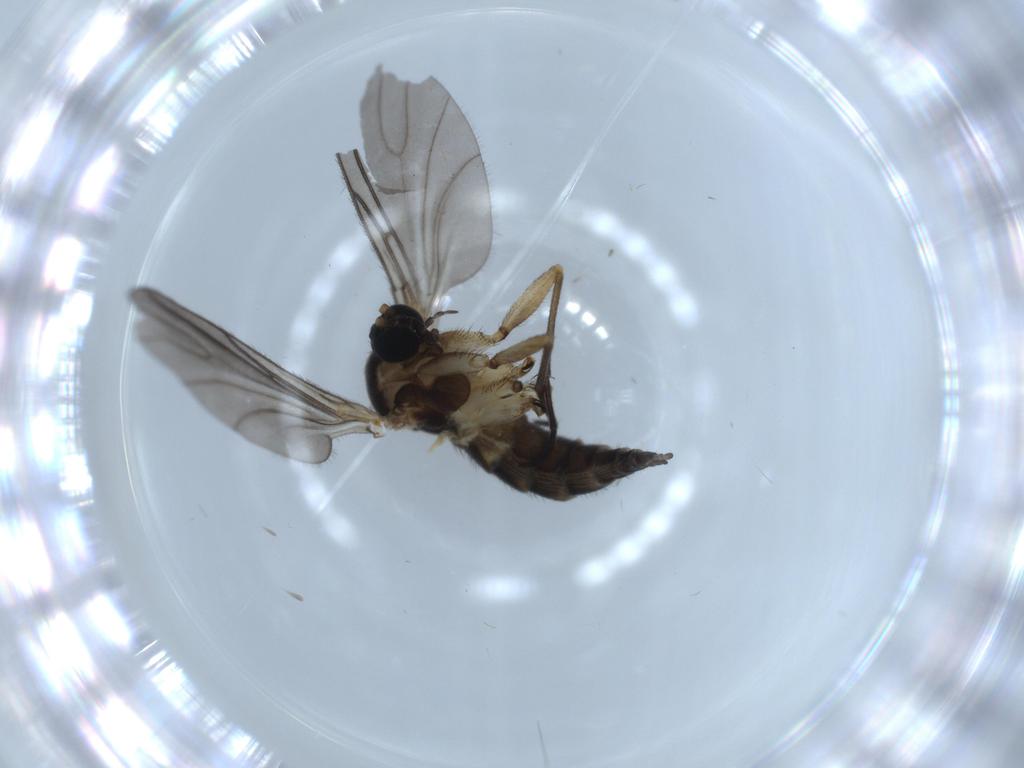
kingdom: Animalia
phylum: Arthropoda
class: Insecta
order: Diptera
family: Sciaridae
